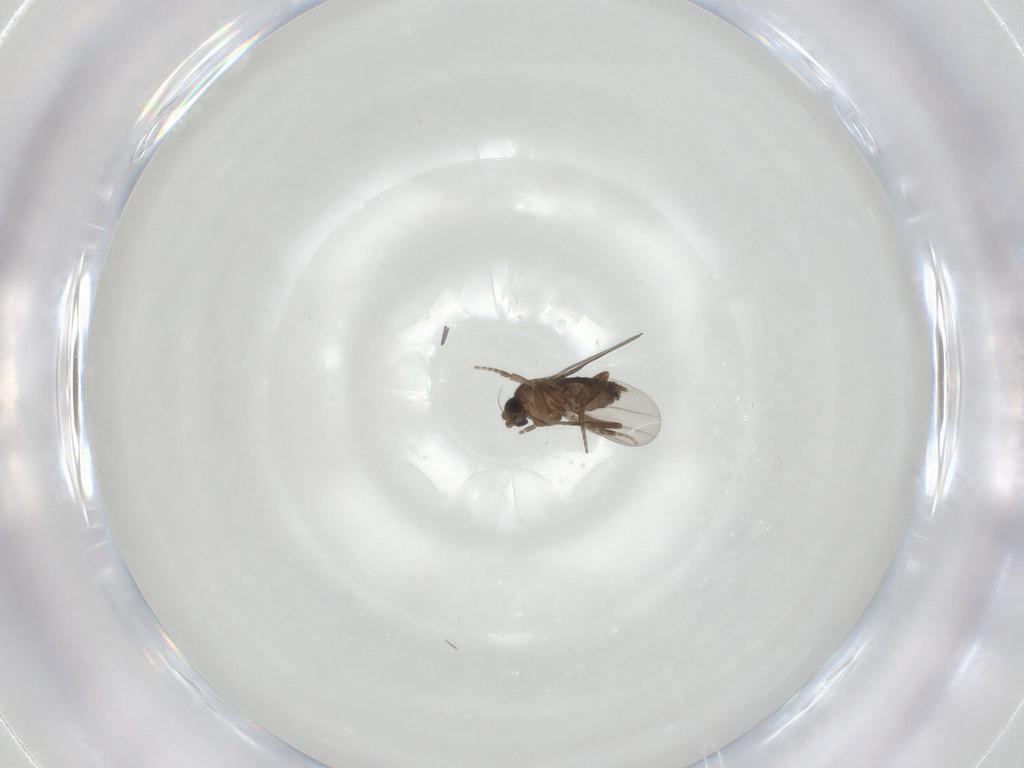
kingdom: Animalia
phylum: Arthropoda
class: Insecta
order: Diptera
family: Phoridae
